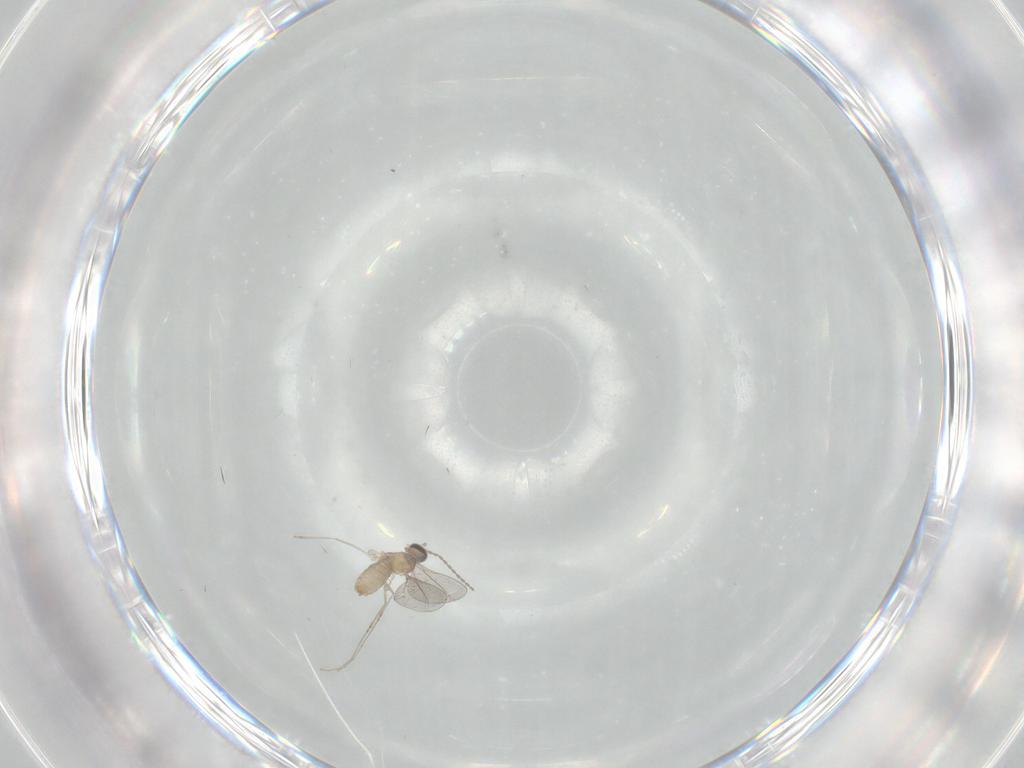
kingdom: Animalia
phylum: Arthropoda
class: Insecta
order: Diptera
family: Cecidomyiidae
